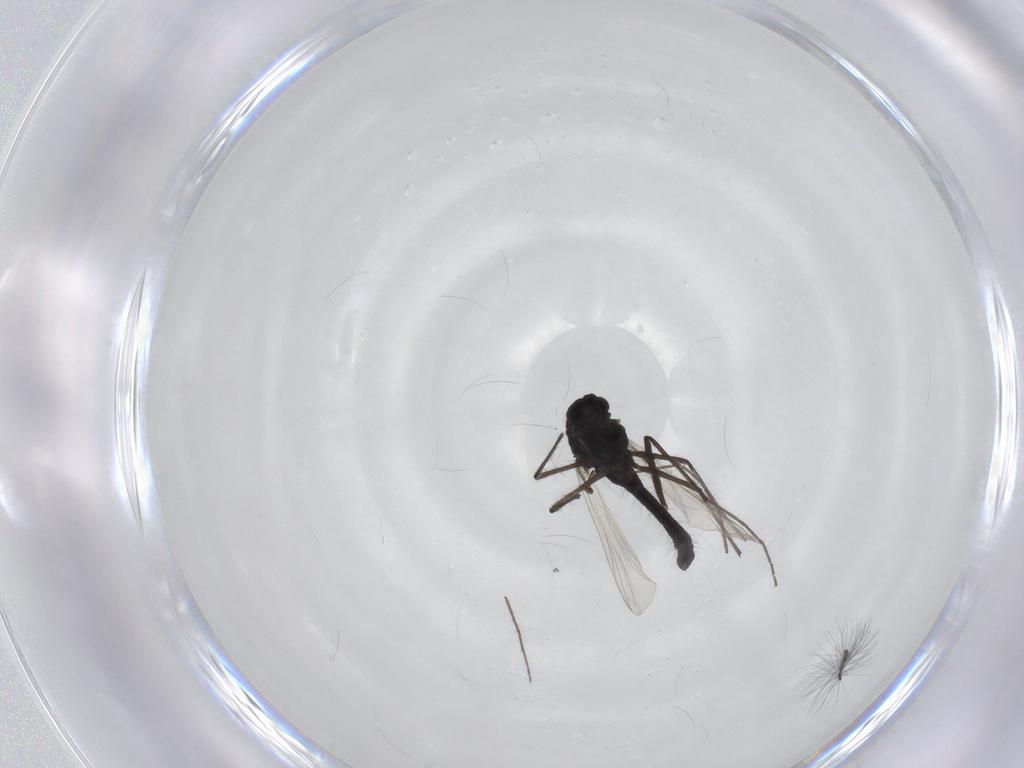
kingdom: Animalia
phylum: Arthropoda
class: Insecta
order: Diptera
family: Chironomidae
